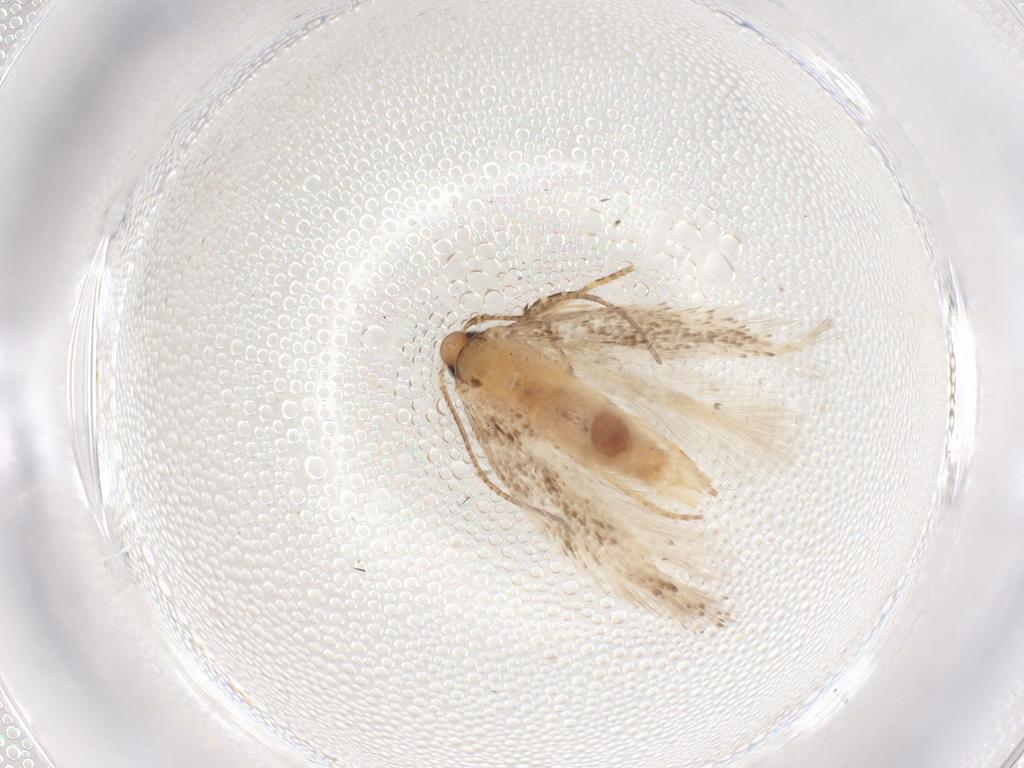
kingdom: Animalia
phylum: Arthropoda
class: Insecta
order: Lepidoptera
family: Gelechiidae
